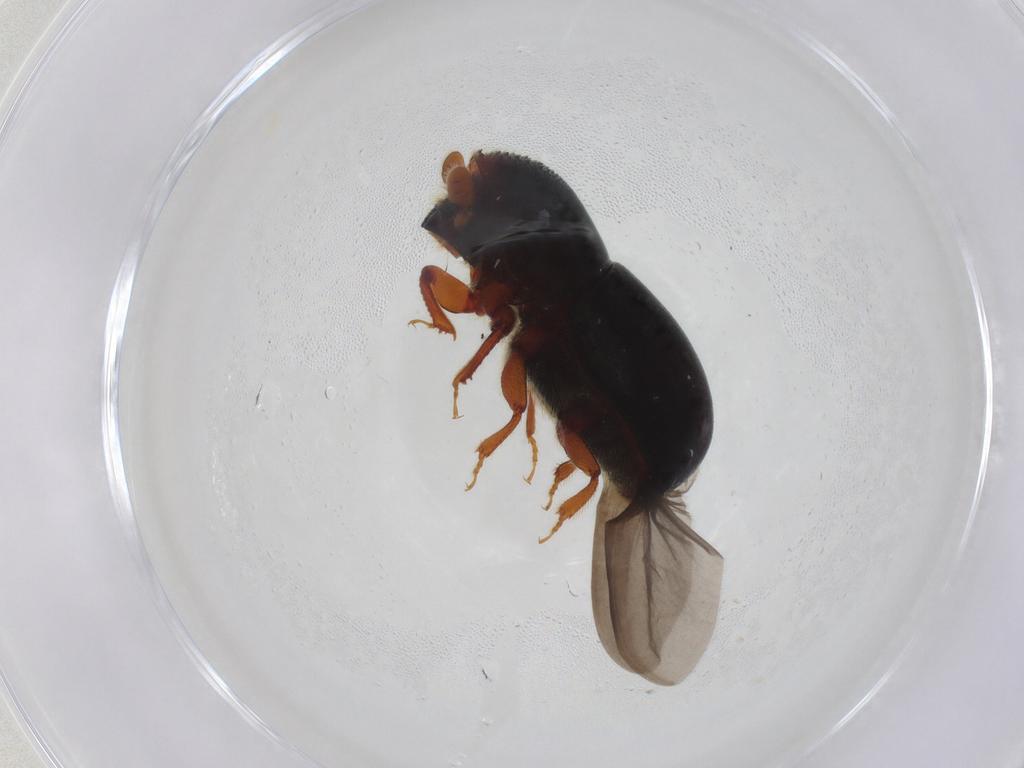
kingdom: Animalia
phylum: Arthropoda
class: Insecta
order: Coleoptera
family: Curculionidae
